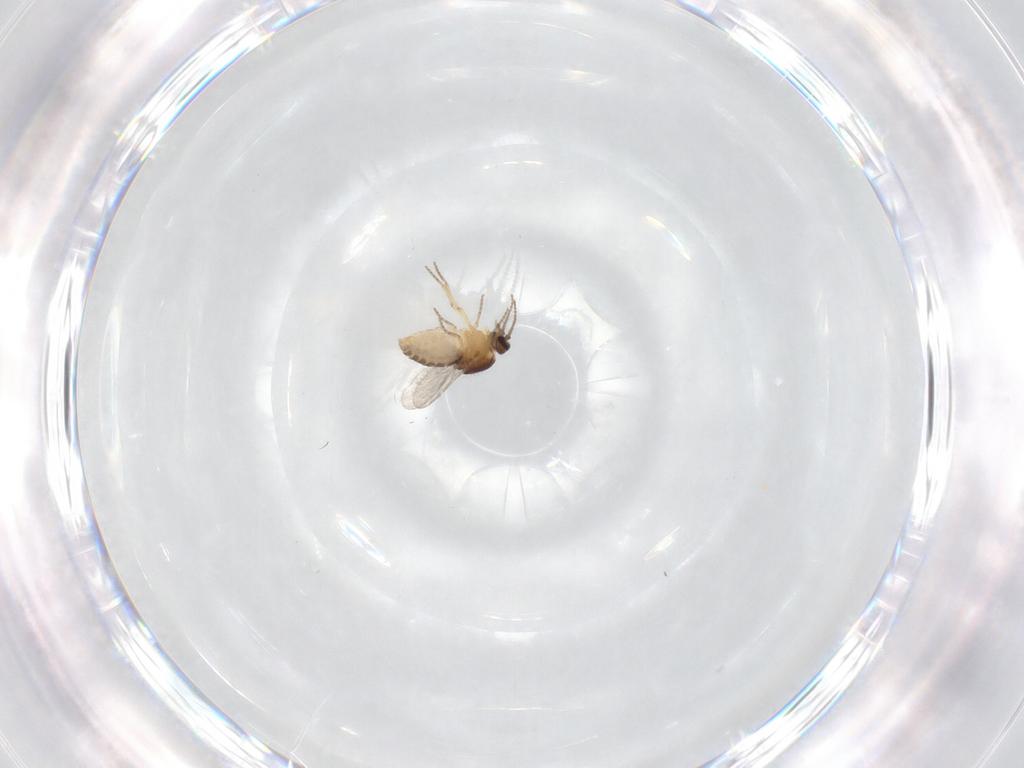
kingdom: Animalia
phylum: Arthropoda
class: Insecta
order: Diptera
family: Ceratopogonidae
